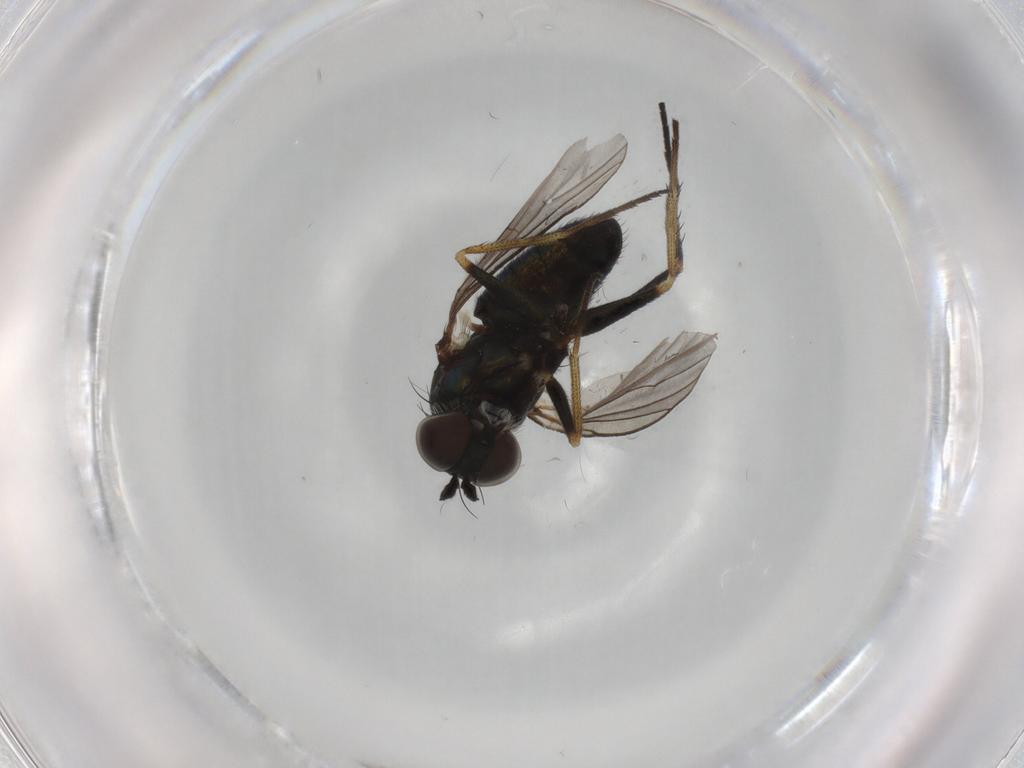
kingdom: Animalia
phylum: Arthropoda
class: Insecta
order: Diptera
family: Dolichopodidae
